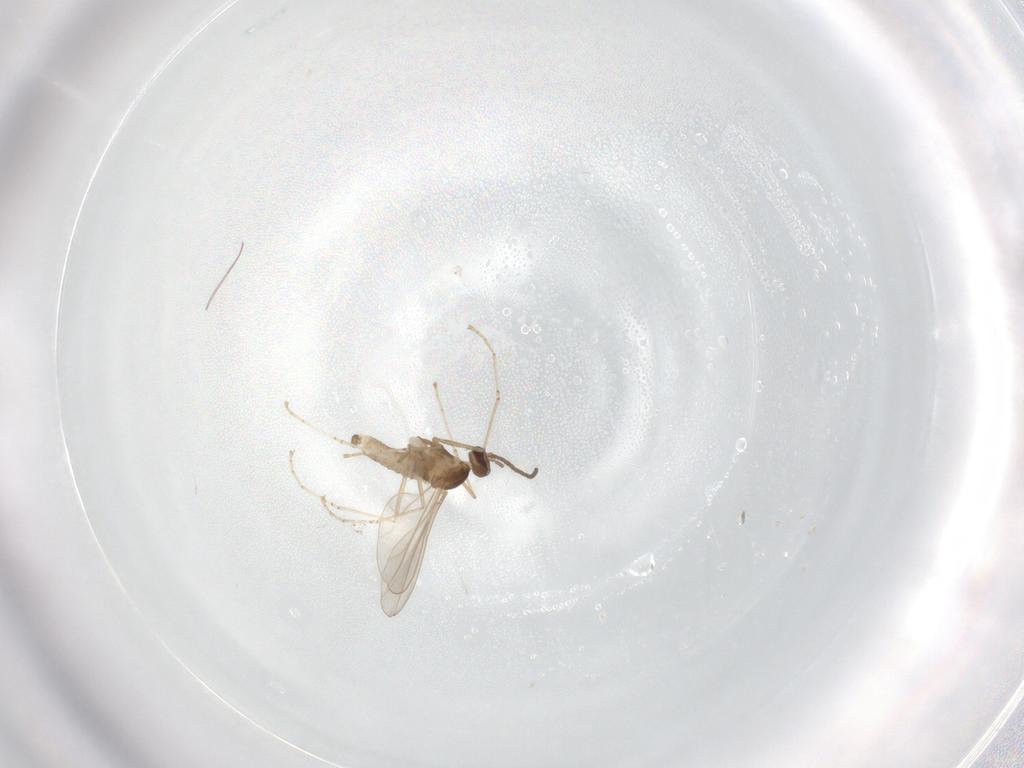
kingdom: Animalia
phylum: Arthropoda
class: Insecta
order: Diptera
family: Cecidomyiidae
